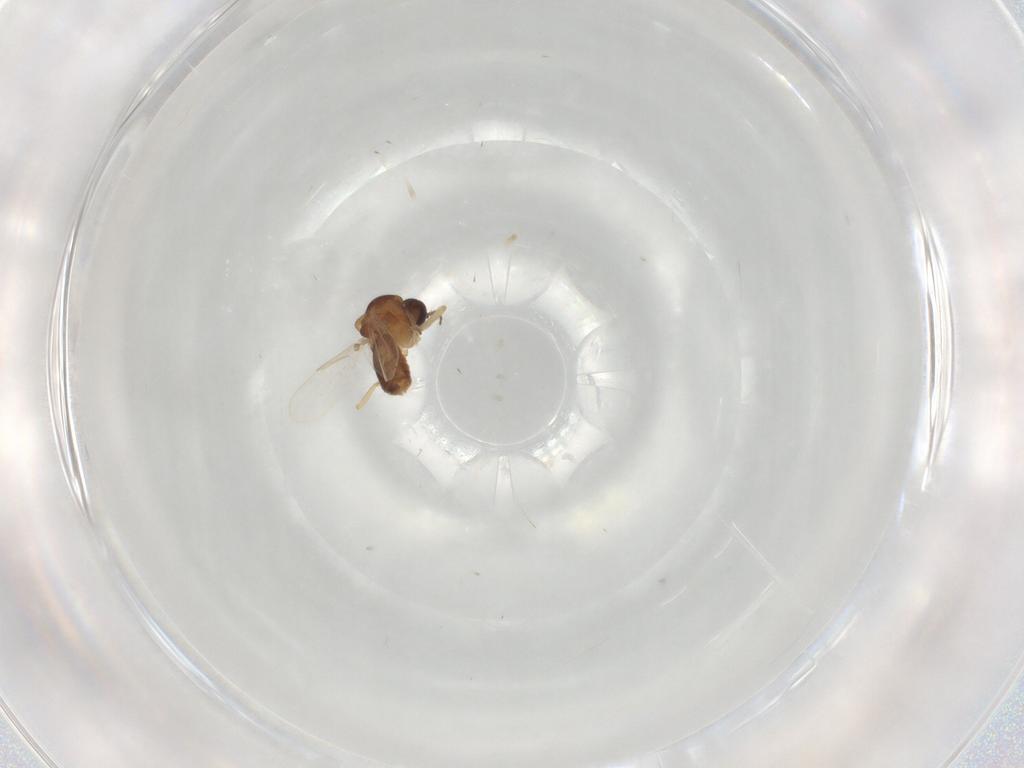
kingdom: Animalia
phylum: Arthropoda
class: Insecta
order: Diptera
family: Ceratopogonidae
